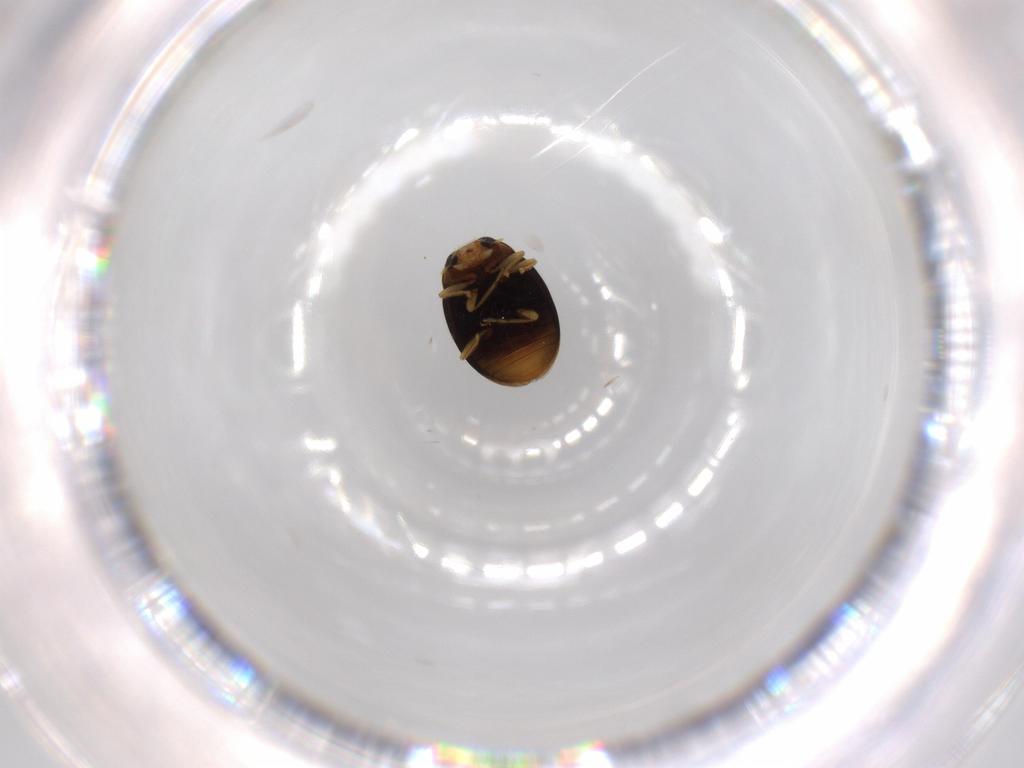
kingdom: Animalia
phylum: Arthropoda
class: Insecta
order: Coleoptera
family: Coccinellidae
